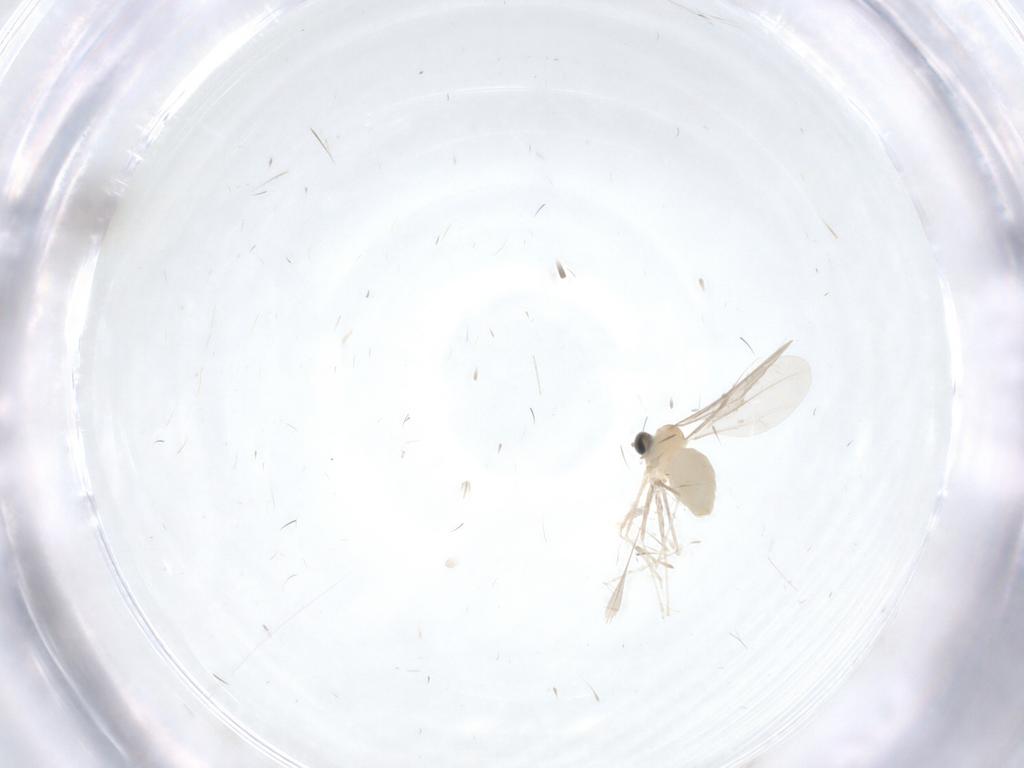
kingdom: Animalia
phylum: Arthropoda
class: Insecta
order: Diptera
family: Cecidomyiidae
